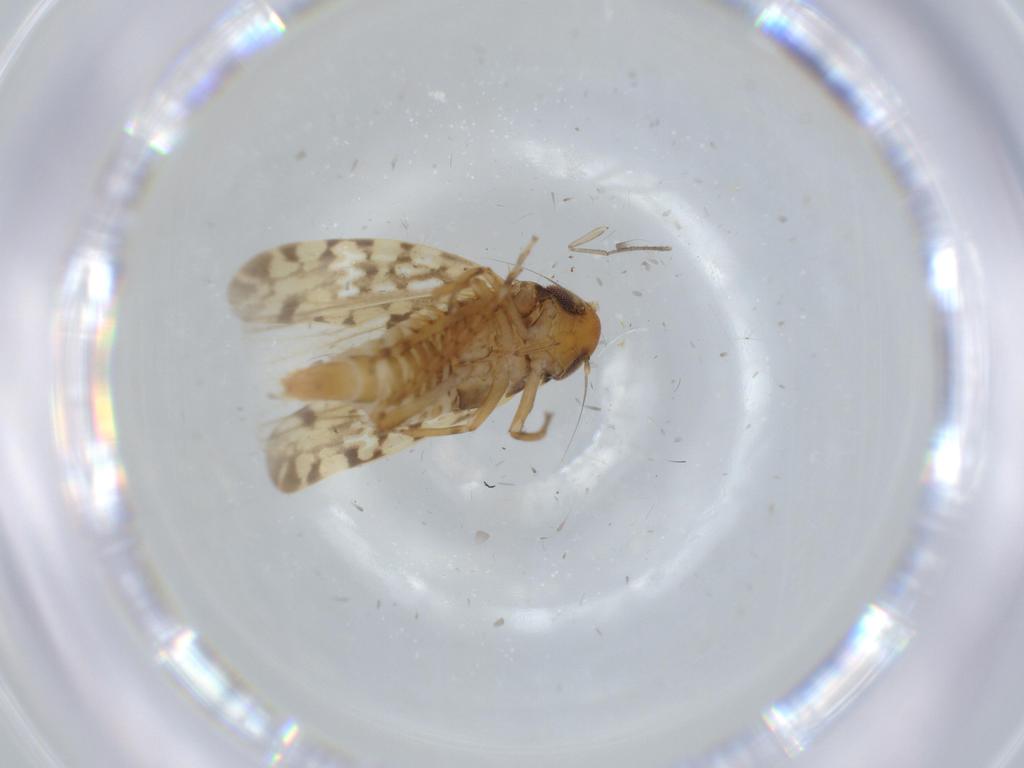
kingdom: Animalia
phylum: Arthropoda
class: Insecta
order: Hemiptera
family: Cicadellidae
